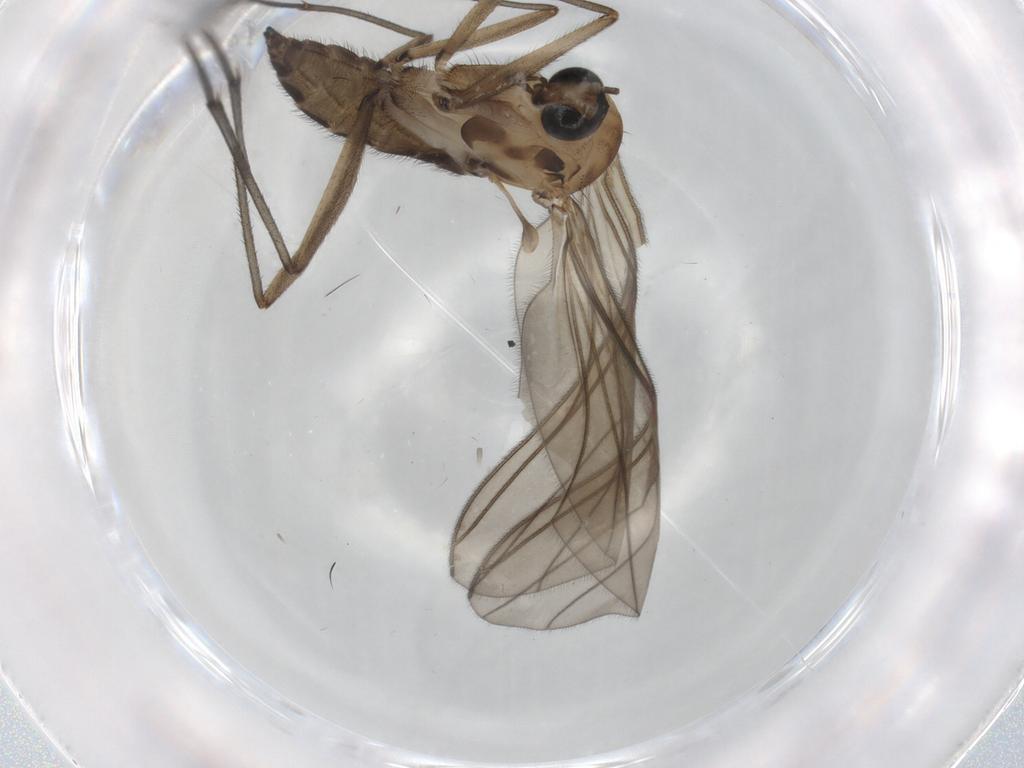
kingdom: Animalia
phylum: Arthropoda
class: Insecta
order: Diptera
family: Sciaridae
